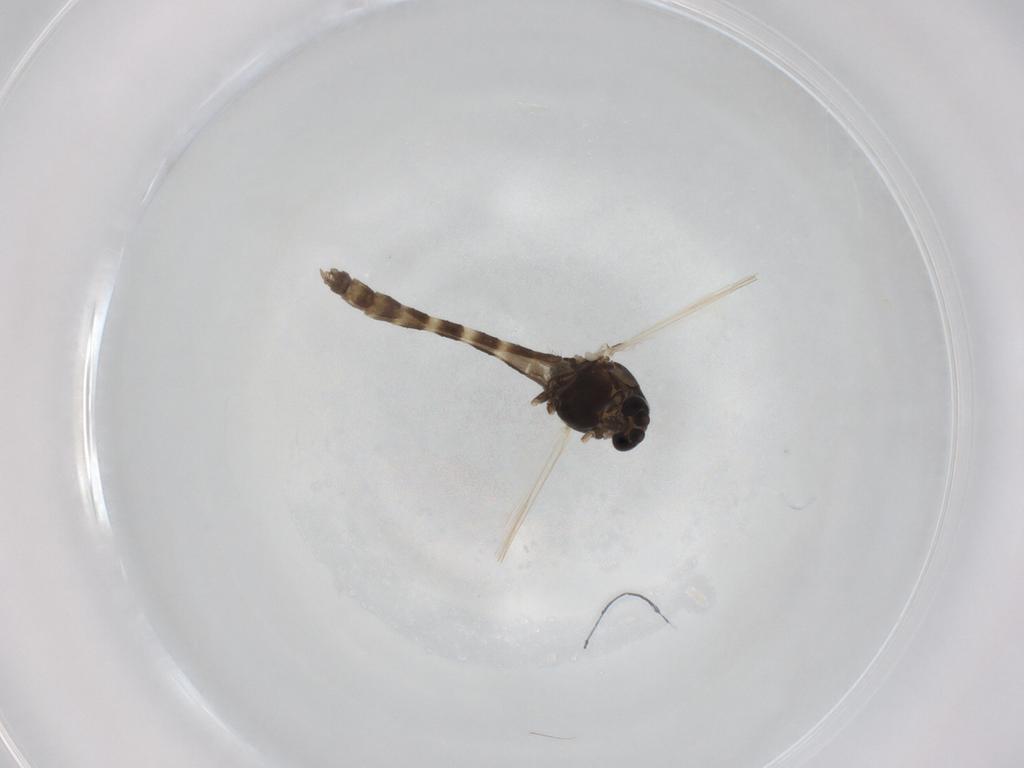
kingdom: Animalia
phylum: Arthropoda
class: Insecta
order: Diptera
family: Chironomidae
